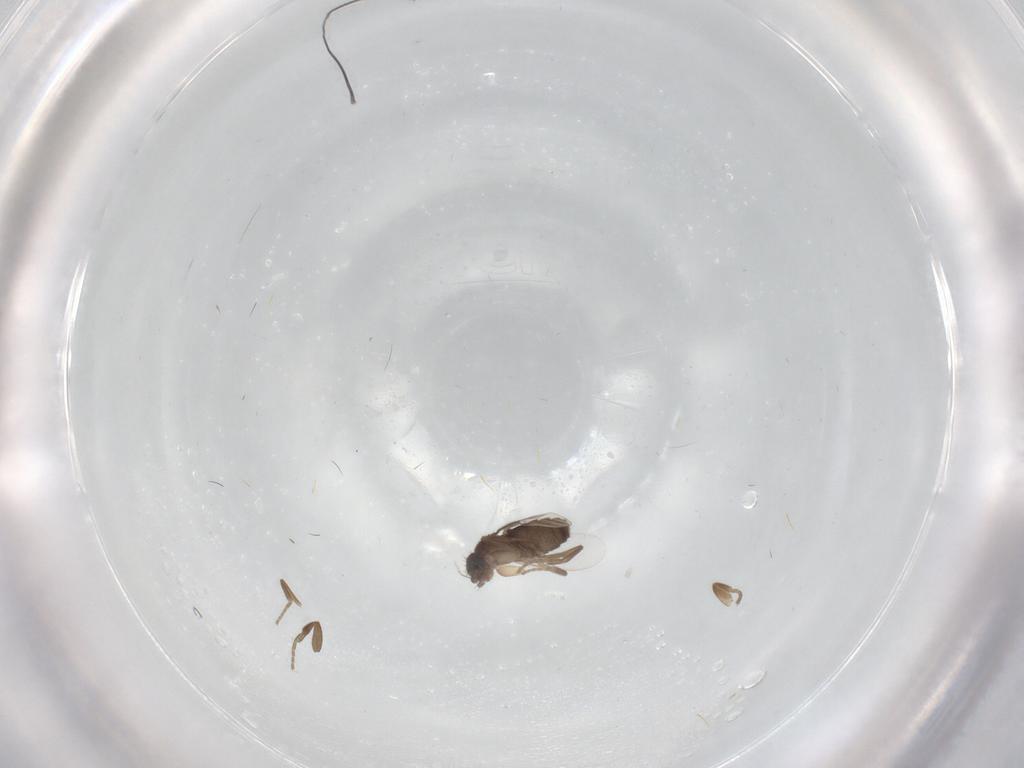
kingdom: Animalia
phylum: Arthropoda
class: Insecta
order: Diptera
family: Phoridae
